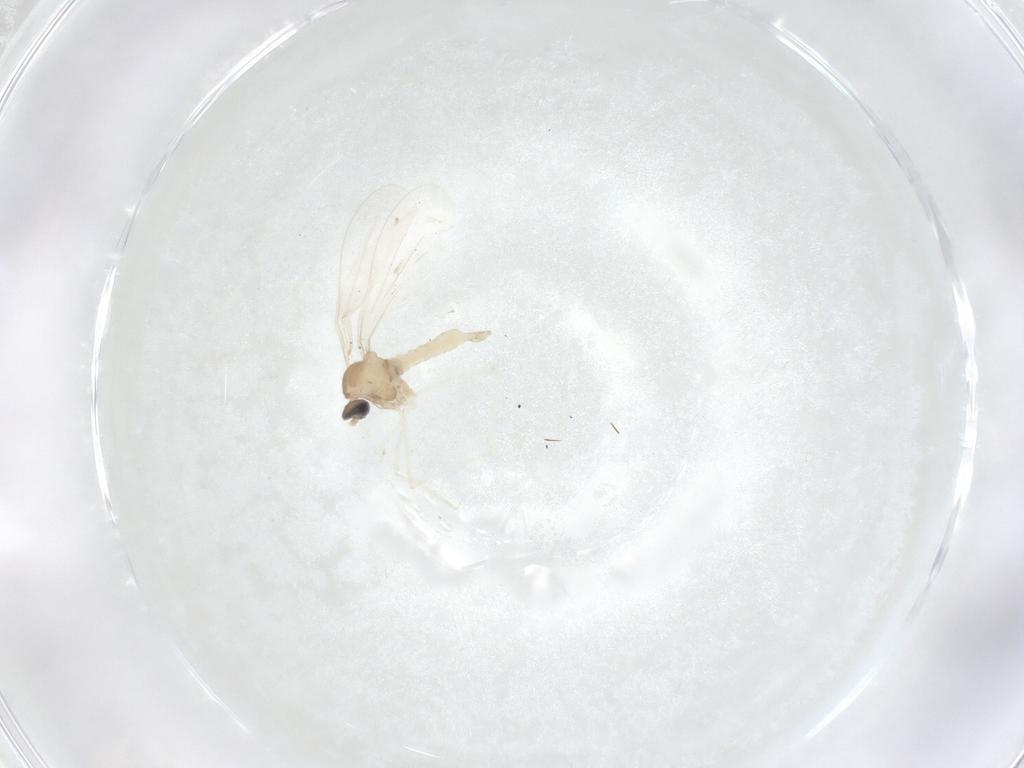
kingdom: Animalia
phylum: Arthropoda
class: Insecta
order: Diptera
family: Cecidomyiidae
